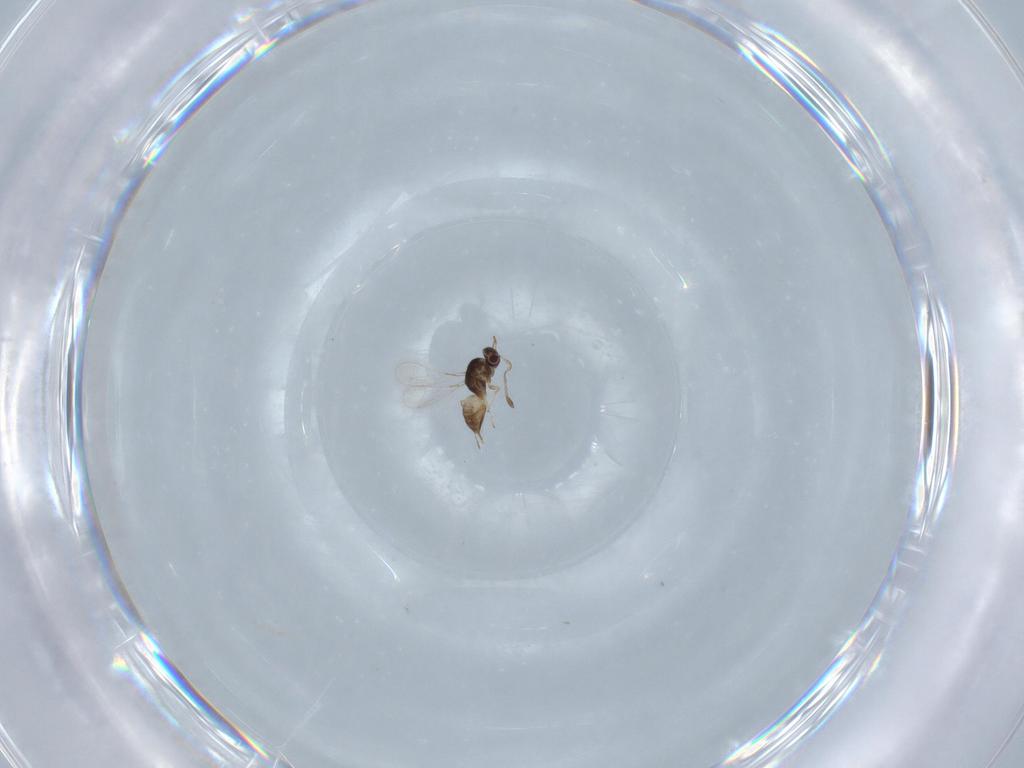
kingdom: Animalia
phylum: Arthropoda
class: Insecta
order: Hymenoptera
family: Mymaridae
